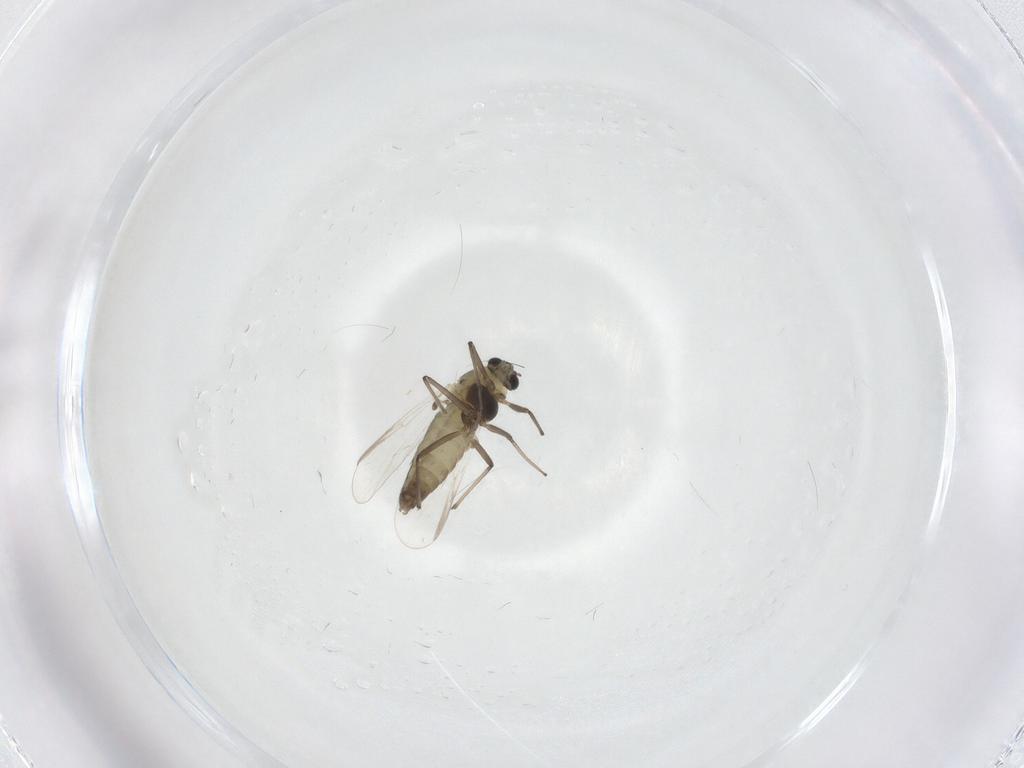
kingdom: Animalia
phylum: Arthropoda
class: Insecta
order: Diptera
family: Chironomidae
